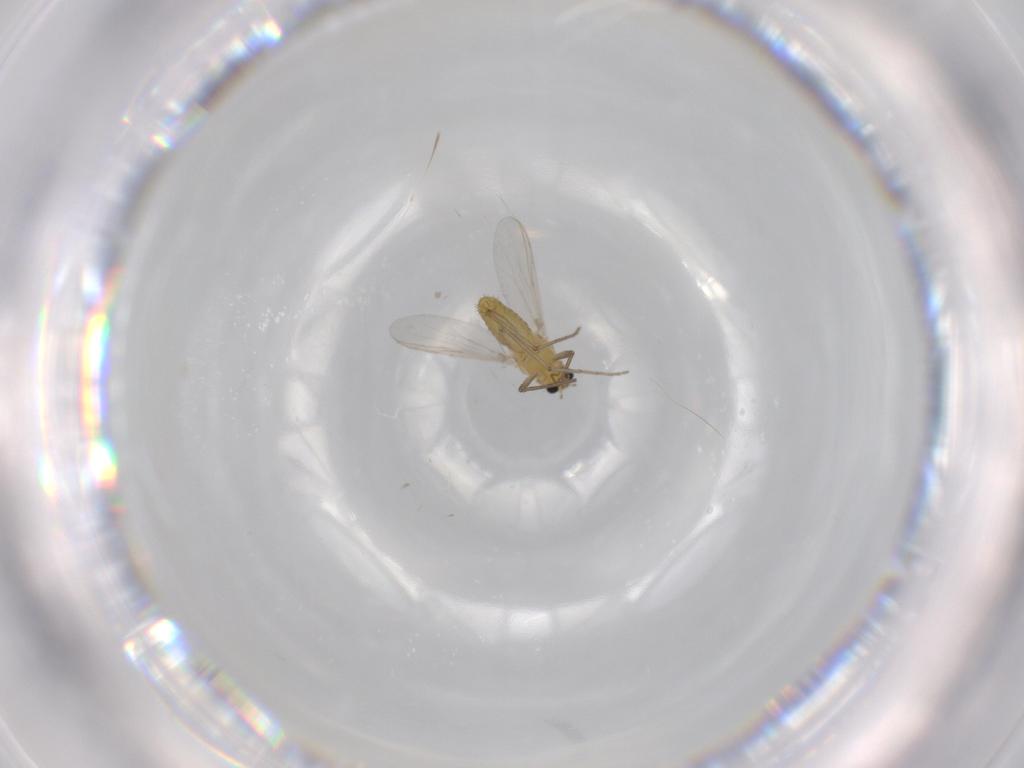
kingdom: Animalia
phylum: Arthropoda
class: Insecta
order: Diptera
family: Chironomidae
